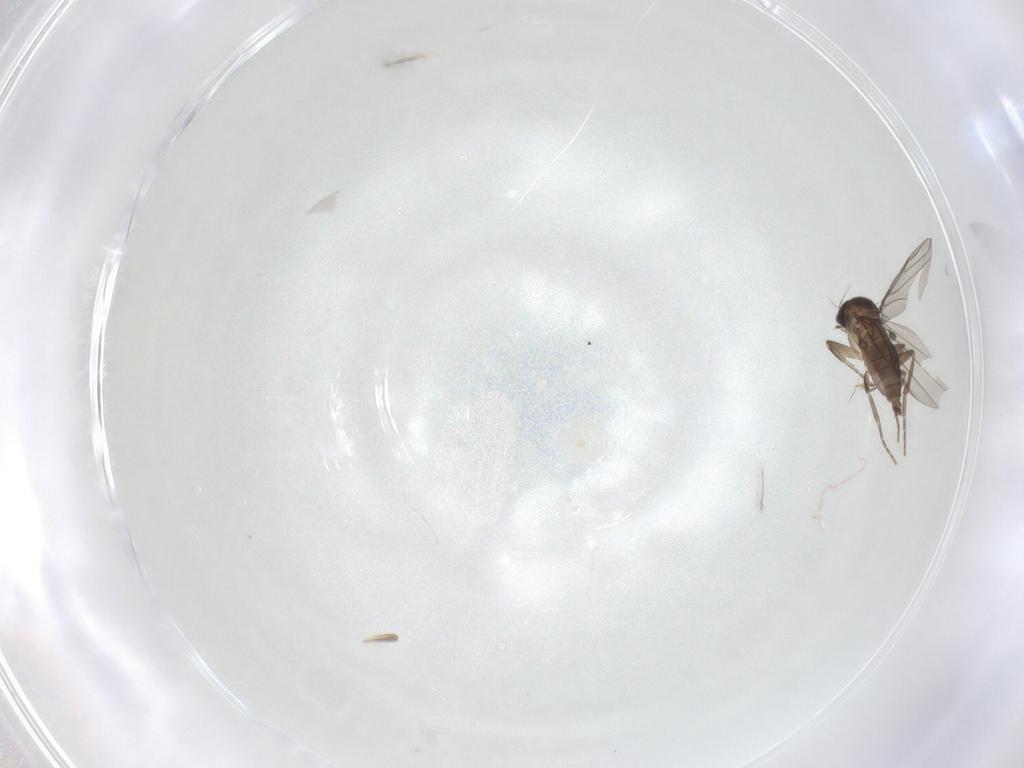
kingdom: Animalia
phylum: Arthropoda
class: Insecta
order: Diptera
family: Phoridae
